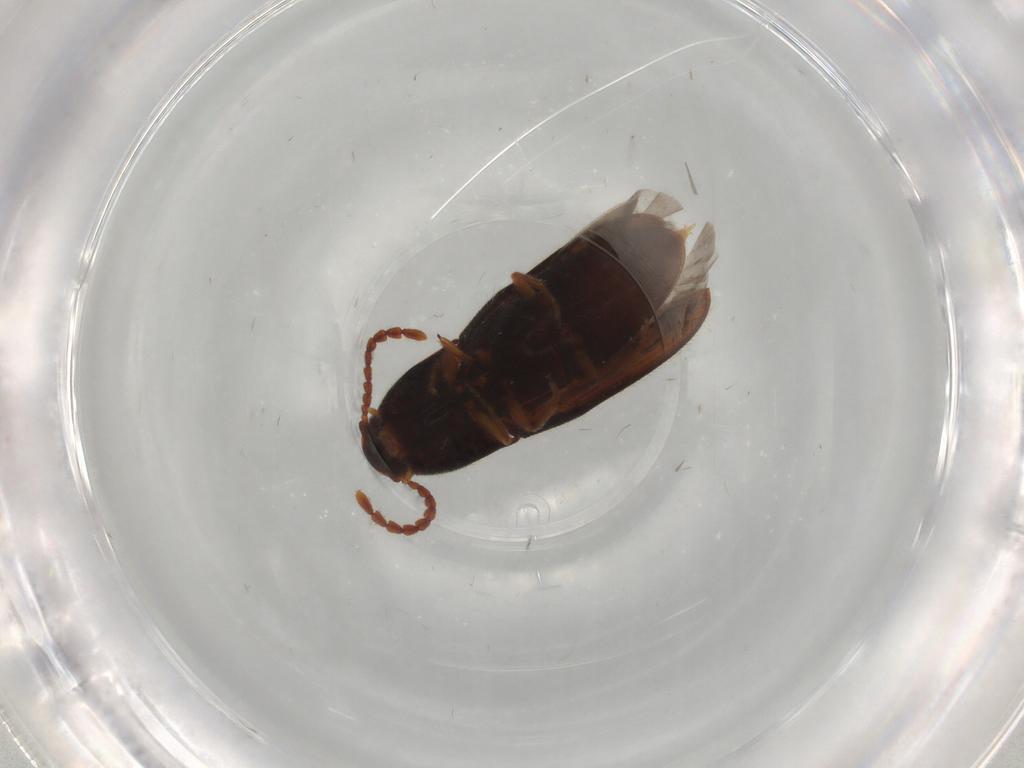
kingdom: Animalia
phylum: Arthropoda
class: Insecta
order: Coleoptera
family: Elateridae
